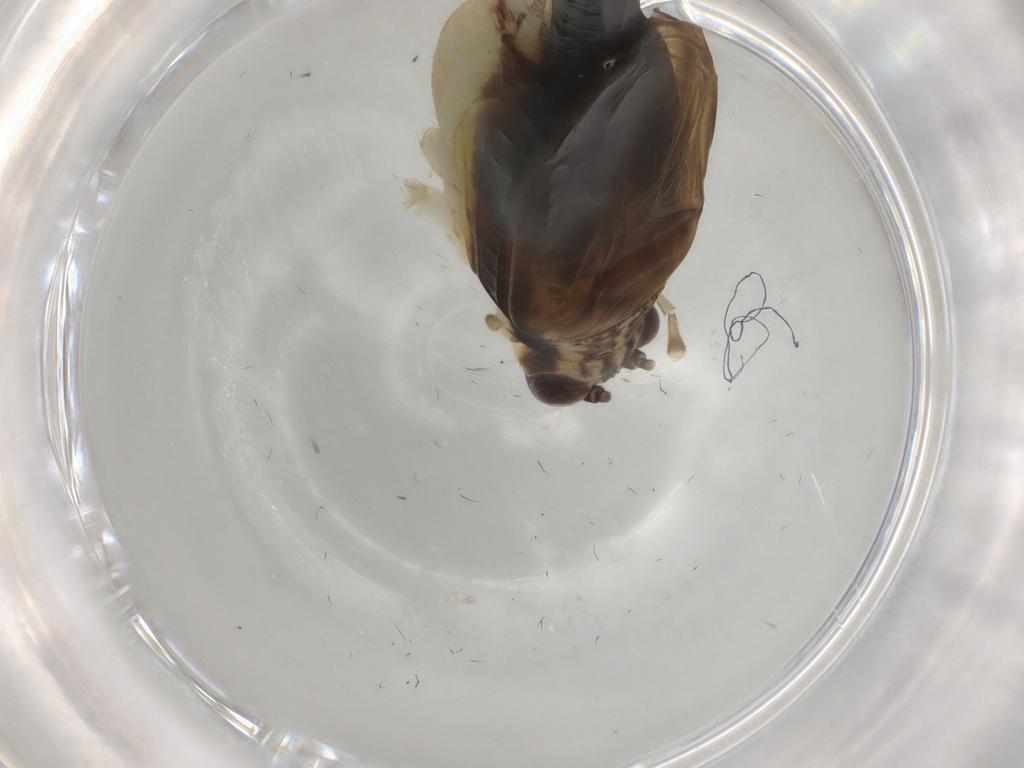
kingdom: Animalia
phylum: Arthropoda
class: Insecta
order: Orthoptera
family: Trigonidiidae
